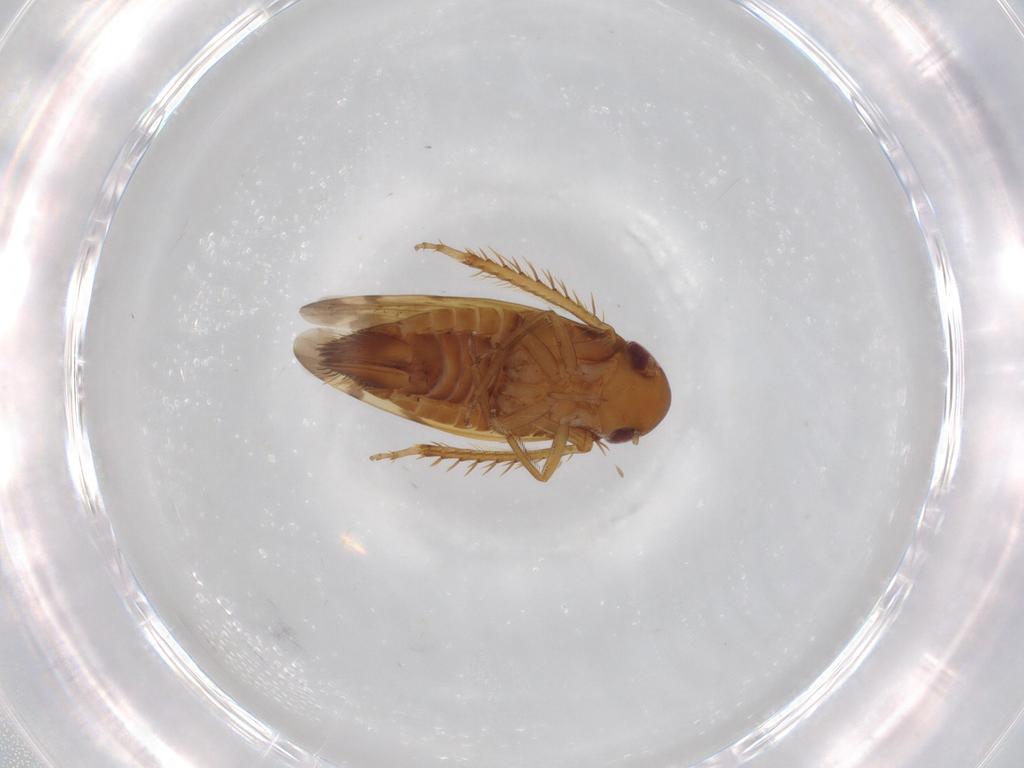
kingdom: Animalia
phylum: Arthropoda
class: Insecta
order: Hemiptera
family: Cicadellidae
